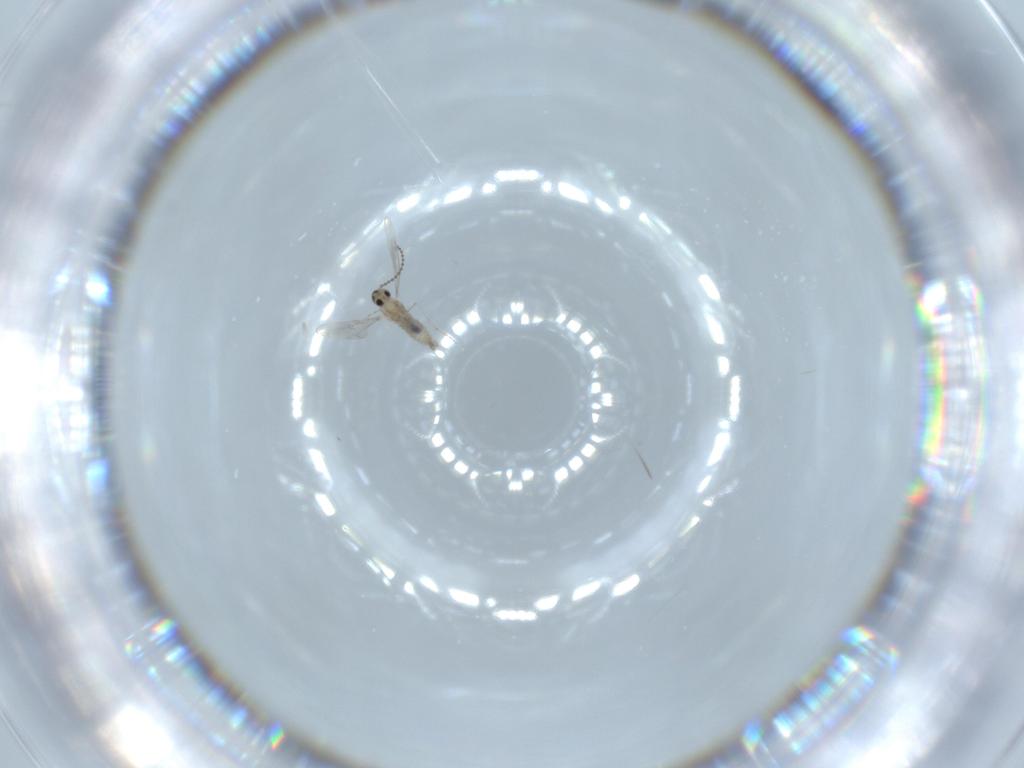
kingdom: Animalia
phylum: Arthropoda
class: Insecta
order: Diptera
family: Cecidomyiidae
